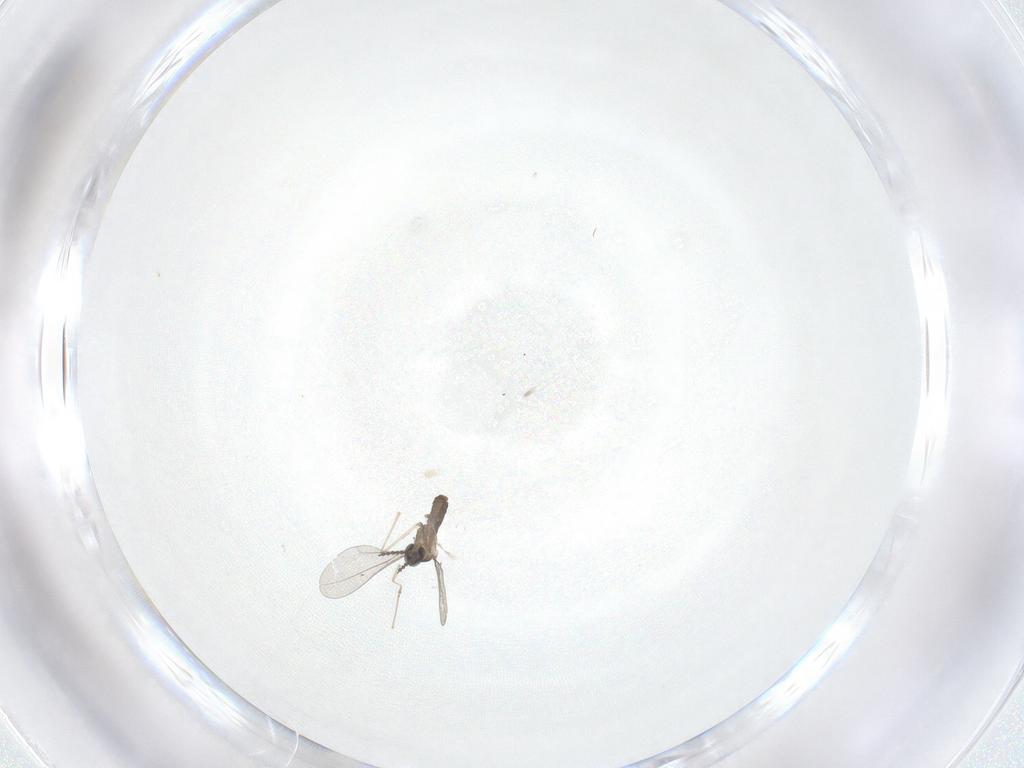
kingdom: Animalia
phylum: Arthropoda
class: Insecta
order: Diptera
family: Cecidomyiidae
